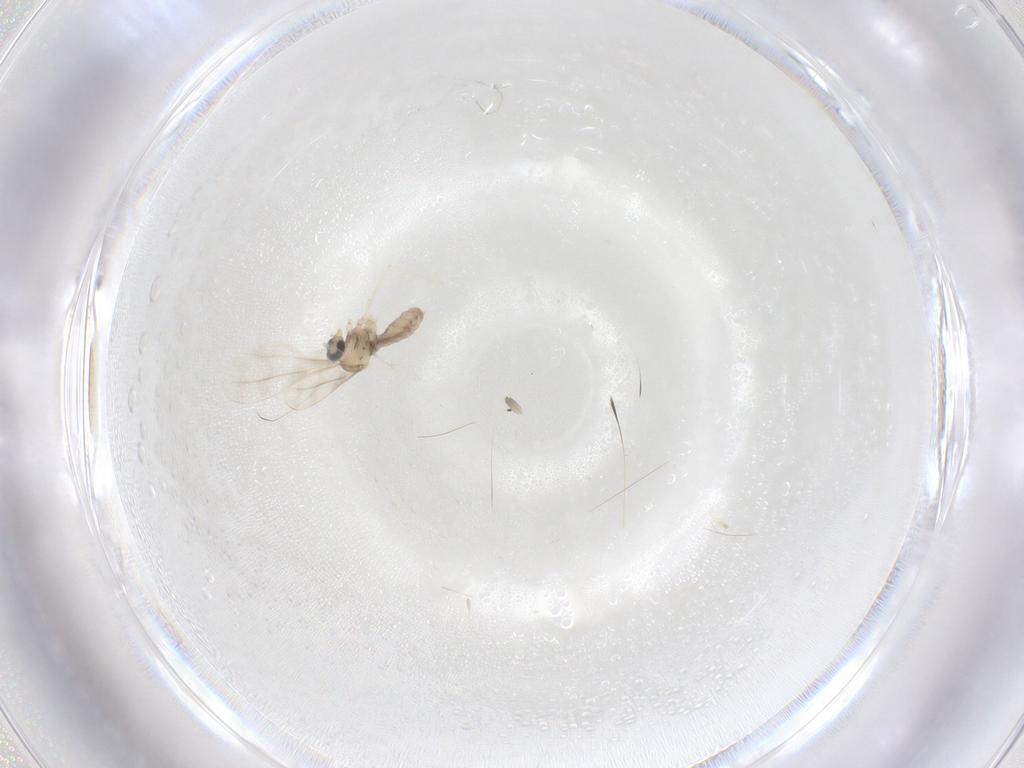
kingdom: Animalia
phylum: Arthropoda
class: Insecta
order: Diptera
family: Cecidomyiidae
